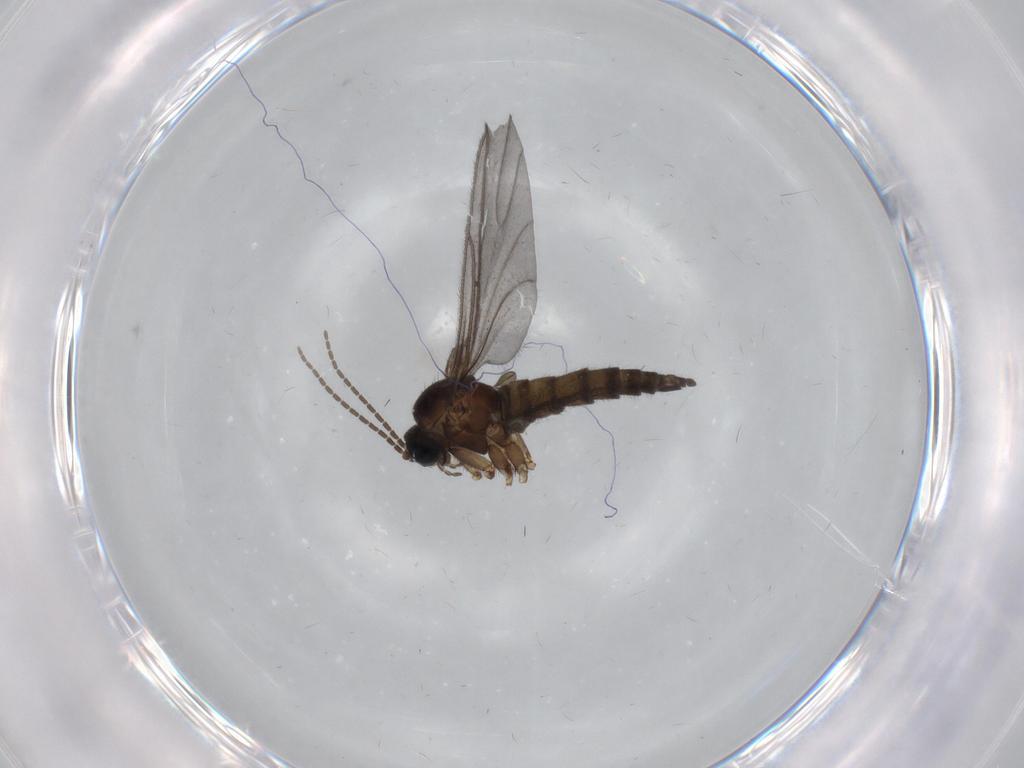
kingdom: Animalia
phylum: Arthropoda
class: Insecta
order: Diptera
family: Sciaridae
